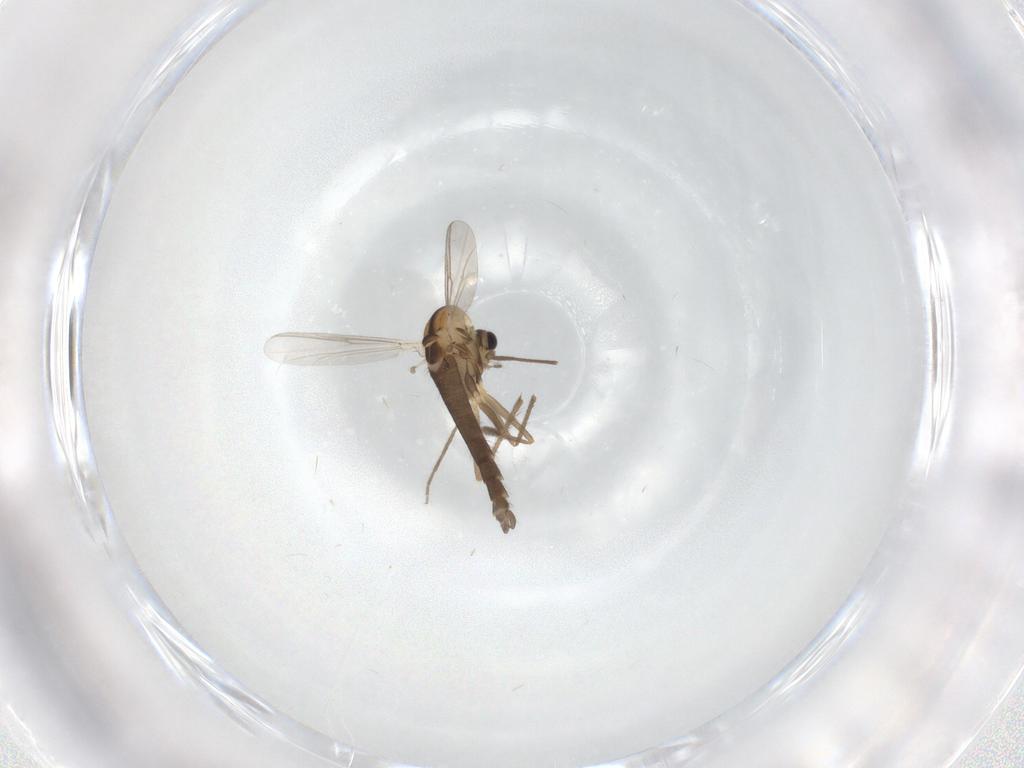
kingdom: Animalia
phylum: Arthropoda
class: Insecta
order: Diptera
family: Chironomidae
